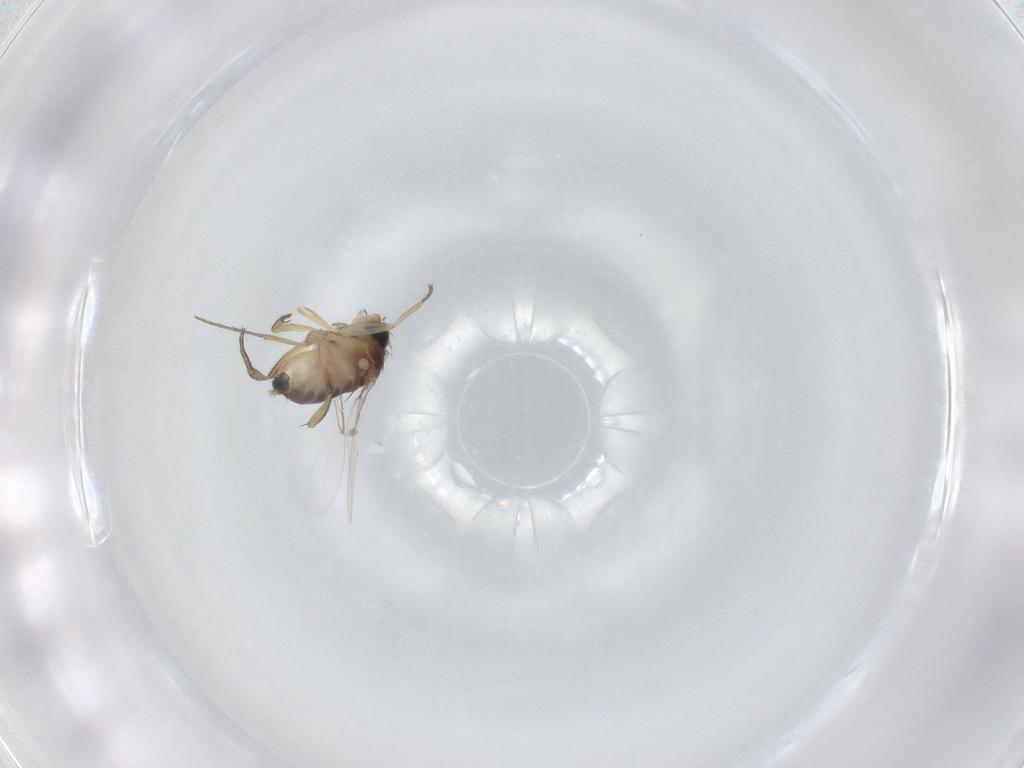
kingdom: Animalia
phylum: Arthropoda
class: Insecta
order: Diptera
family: Phoridae
